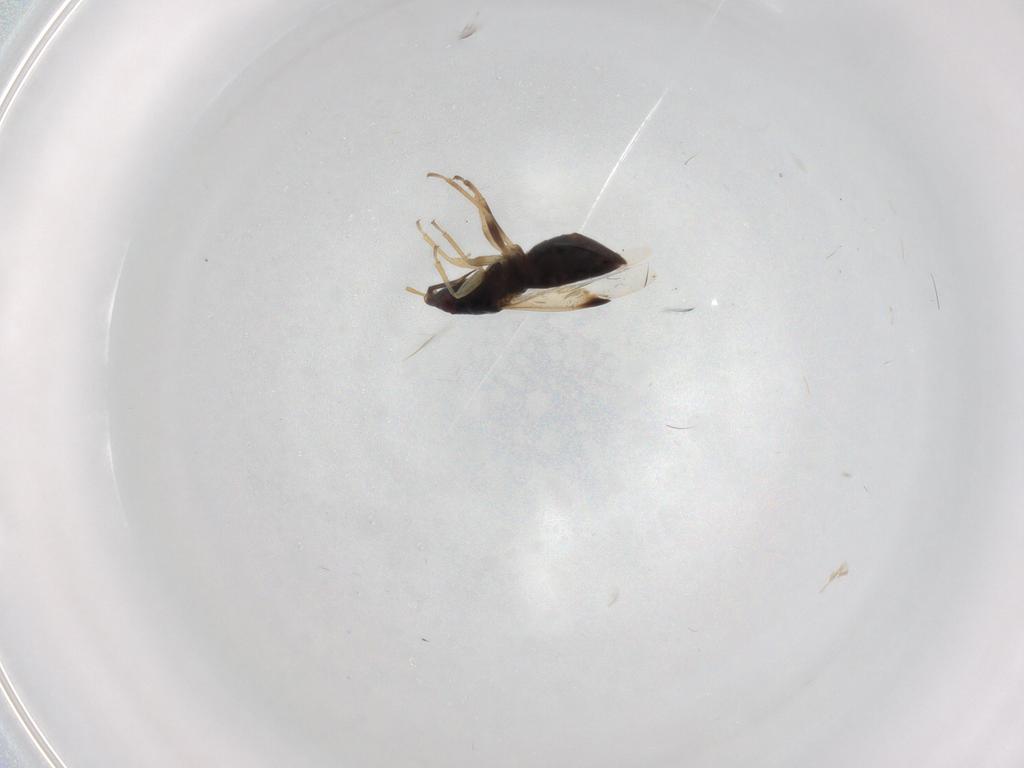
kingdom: Animalia
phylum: Arthropoda
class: Insecta
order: Hemiptera
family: Anthocoridae
